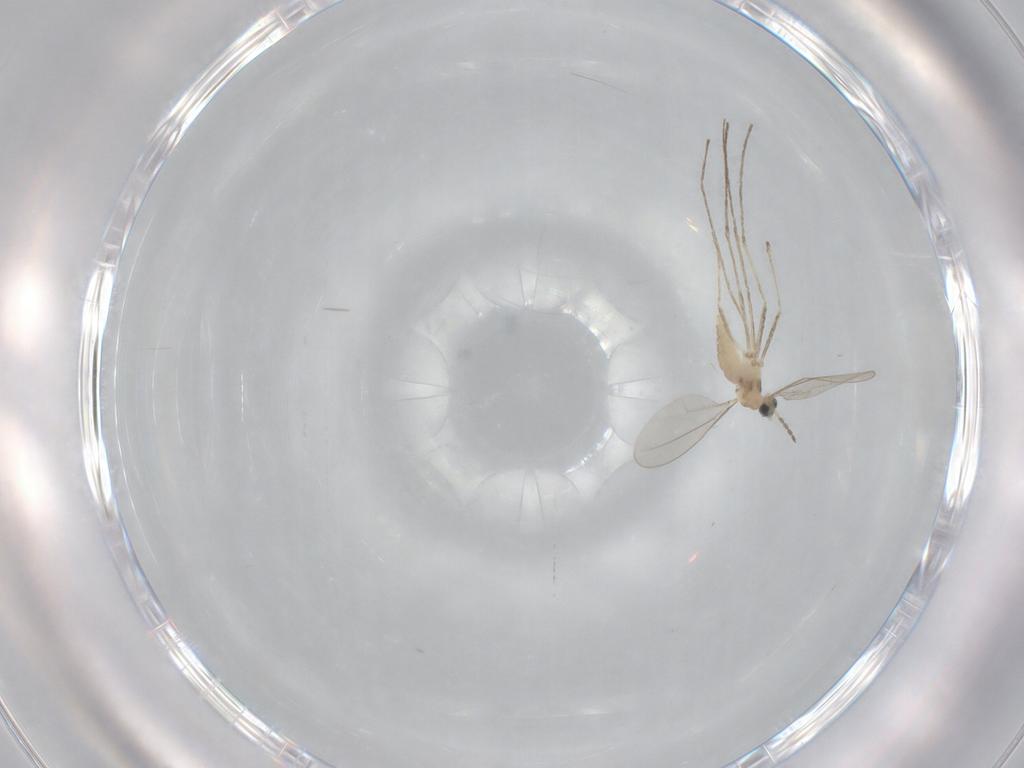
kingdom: Animalia
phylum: Arthropoda
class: Insecta
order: Diptera
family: Cecidomyiidae
